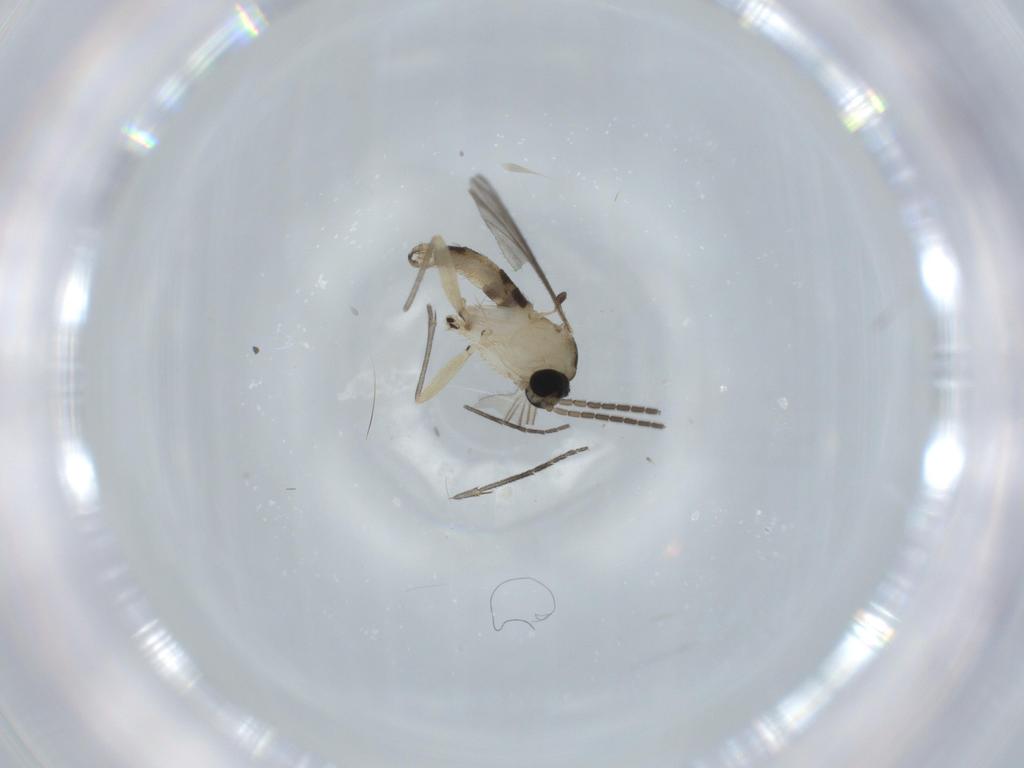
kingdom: Animalia
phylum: Arthropoda
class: Insecta
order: Diptera
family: Sciaridae
